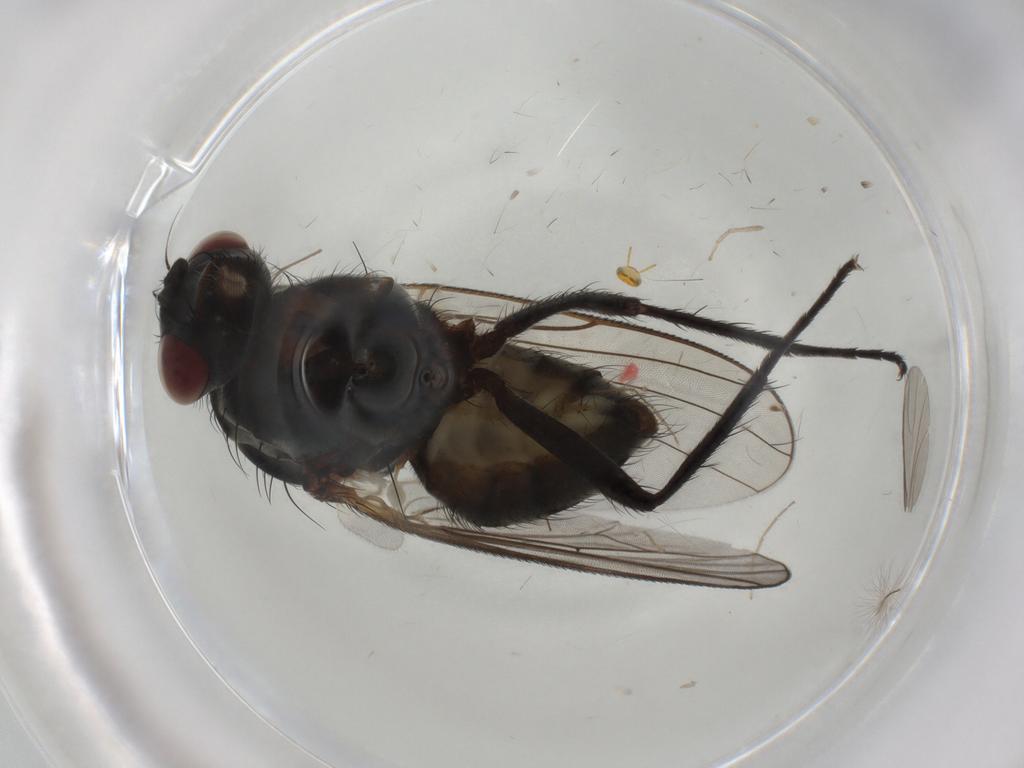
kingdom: Animalia
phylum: Arthropoda
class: Insecta
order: Diptera
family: Anthomyiidae
